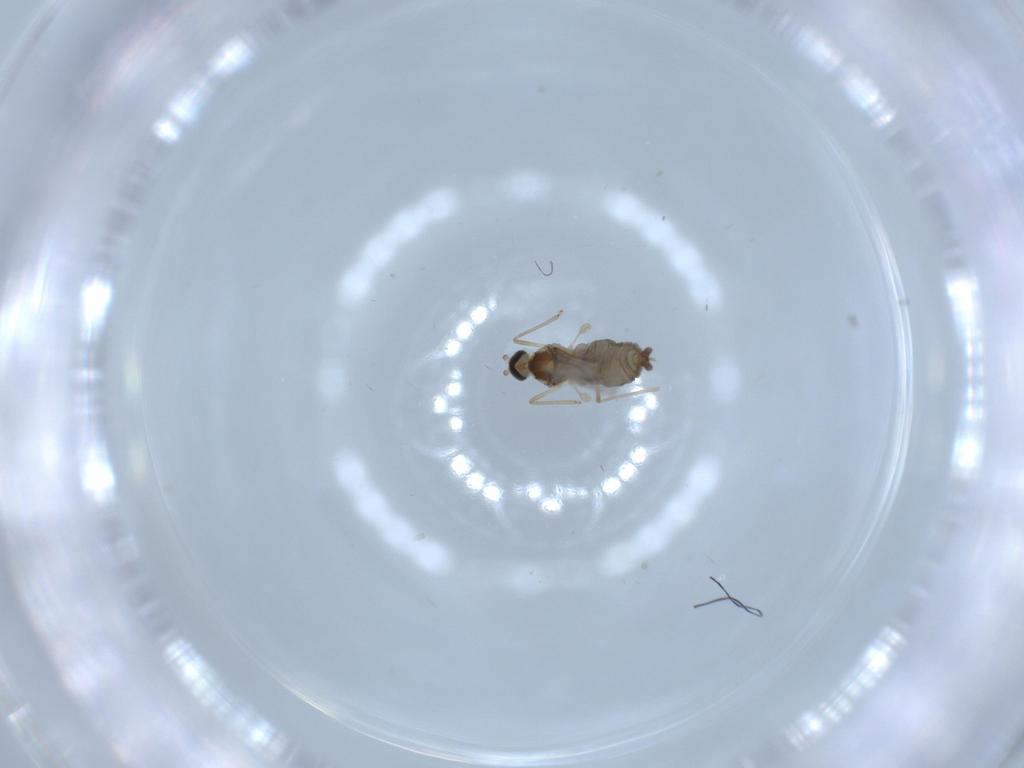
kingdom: Animalia
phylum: Arthropoda
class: Insecta
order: Diptera
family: Cecidomyiidae
